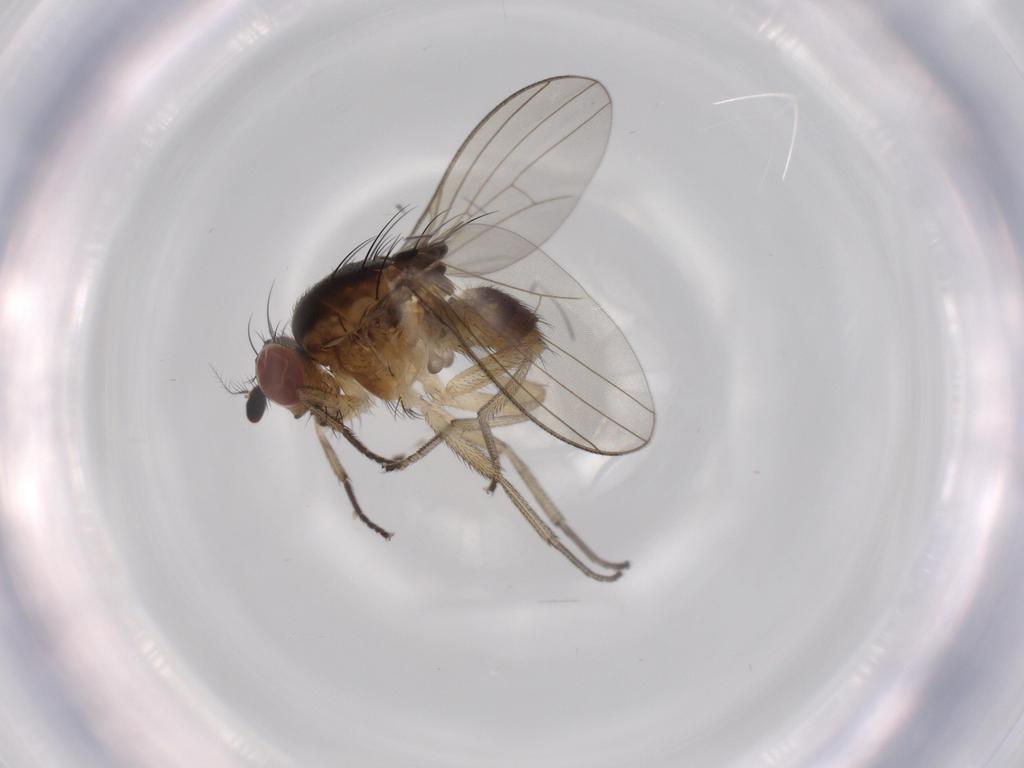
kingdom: Animalia
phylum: Arthropoda
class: Insecta
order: Diptera
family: Lauxaniidae
